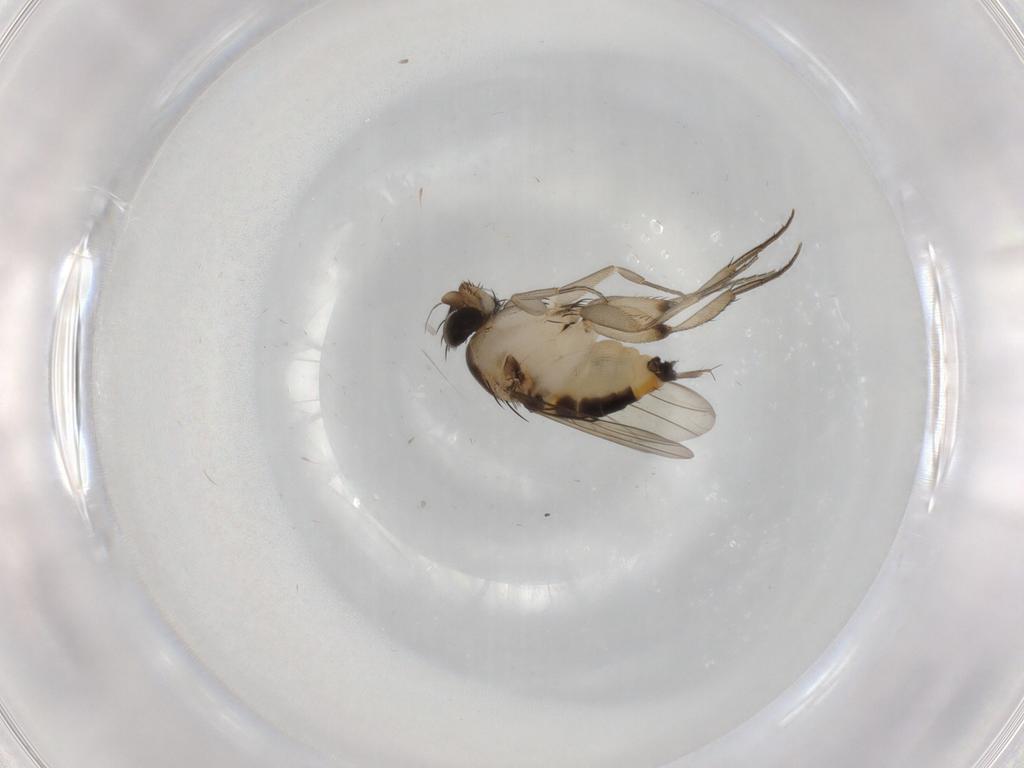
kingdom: Animalia
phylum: Arthropoda
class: Insecta
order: Diptera
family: Phoridae
